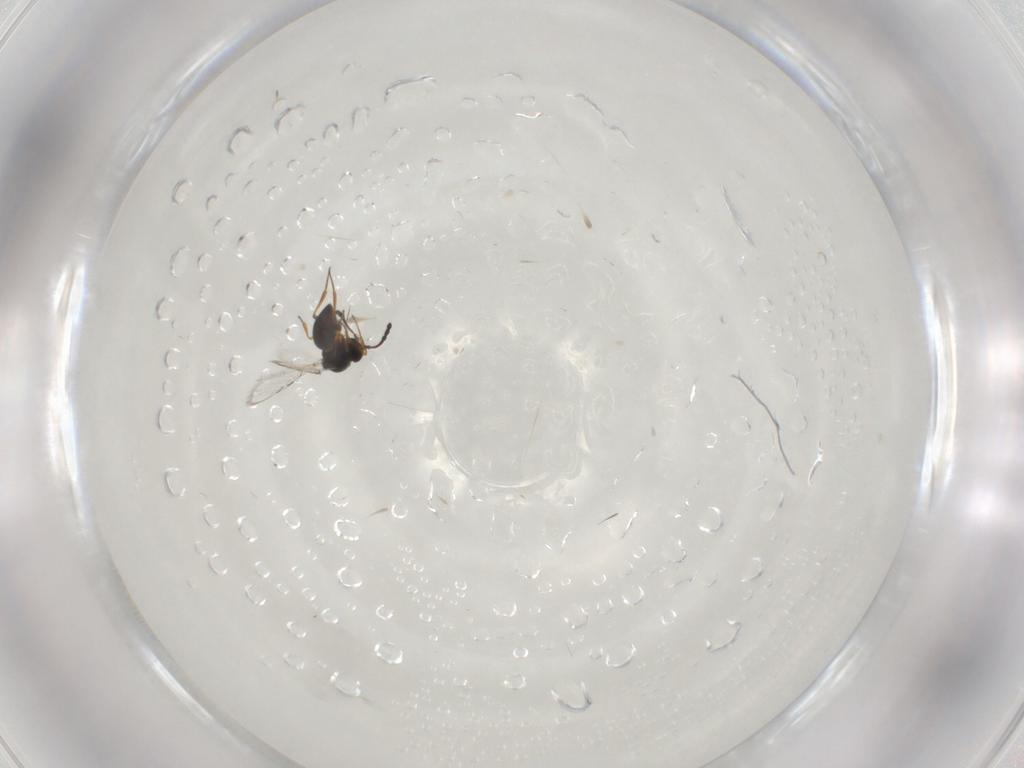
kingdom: Animalia
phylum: Arthropoda
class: Insecta
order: Hymenoptera
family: Figitidae
